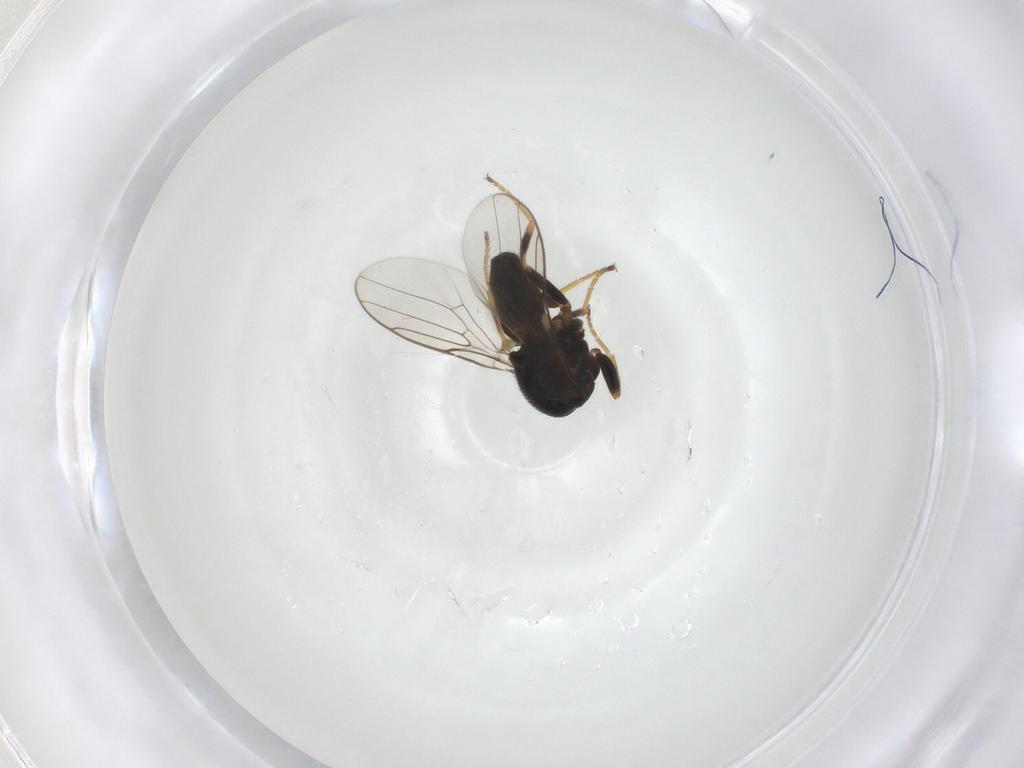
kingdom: Animalia
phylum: Arthropoda
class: Insecta
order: Diptera
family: Chloropidae
